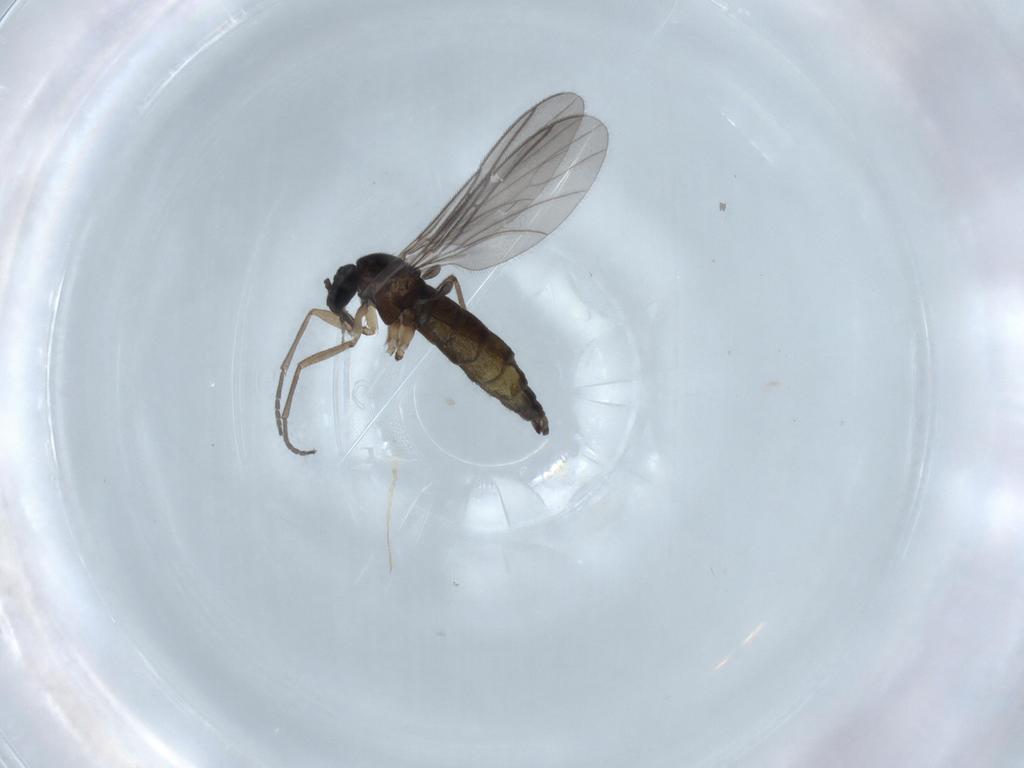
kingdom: Animalia
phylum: Arthropoda
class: Insecta
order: Diptera
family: Sciaridae
